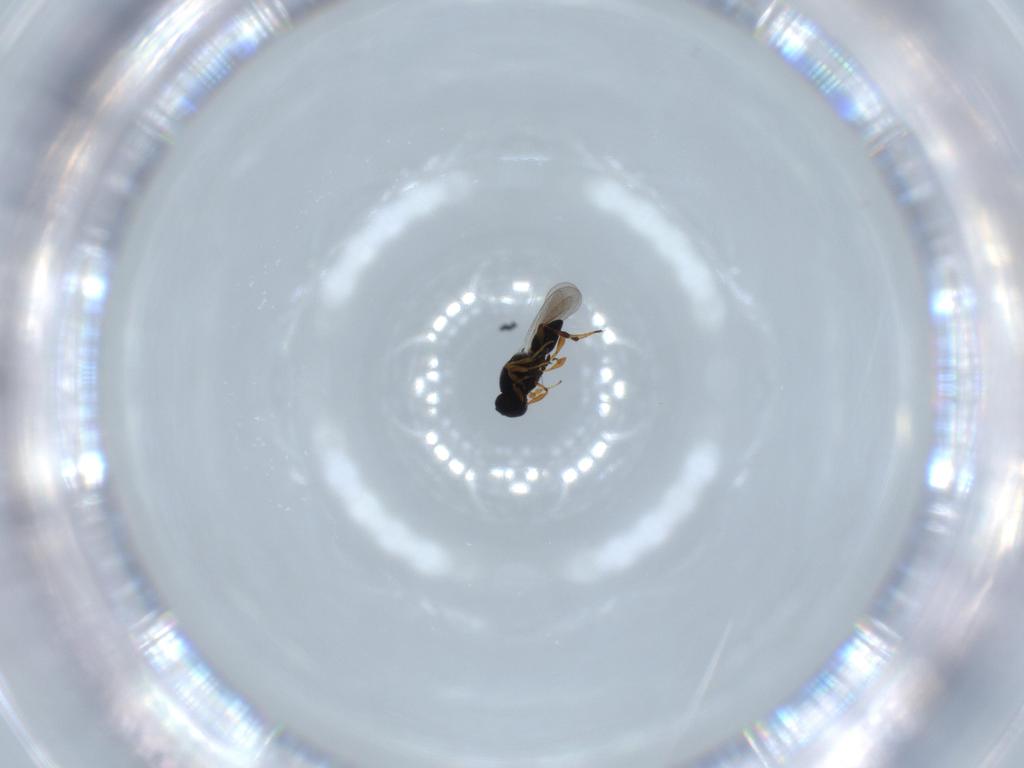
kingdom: Animalia
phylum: Arthropoda
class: Insecta
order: Hymenoptera
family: Platygastridae
